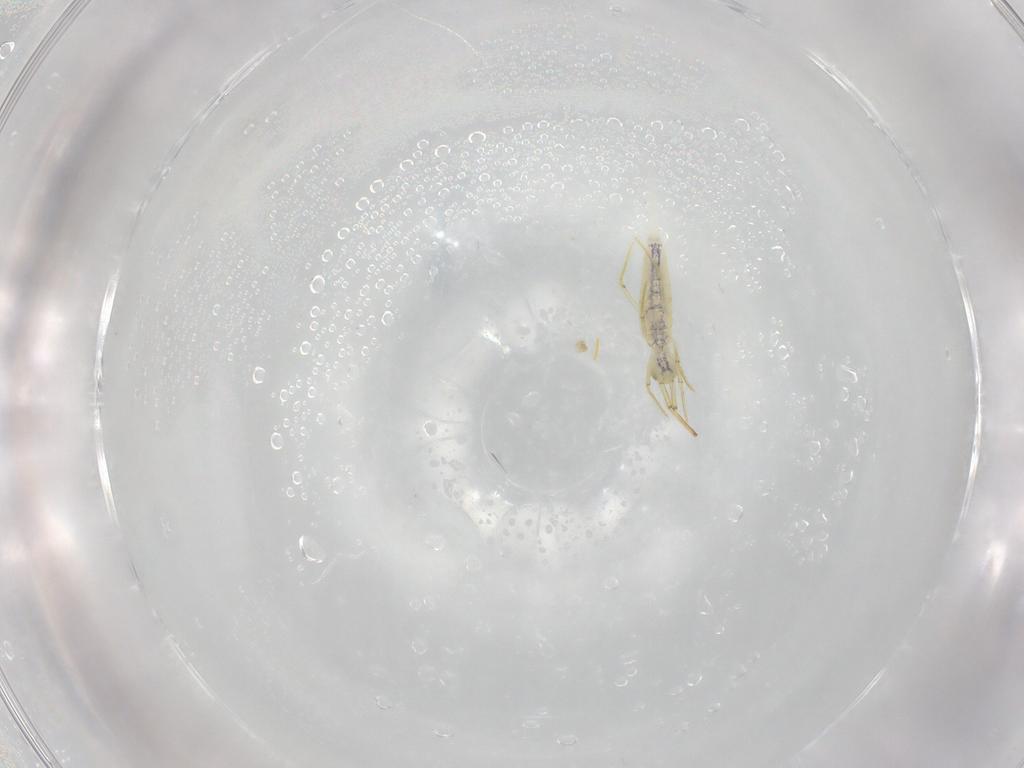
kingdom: Animalia
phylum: Arthropoda
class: Collembola
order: Entomobryomorpha
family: Entomobryidae
